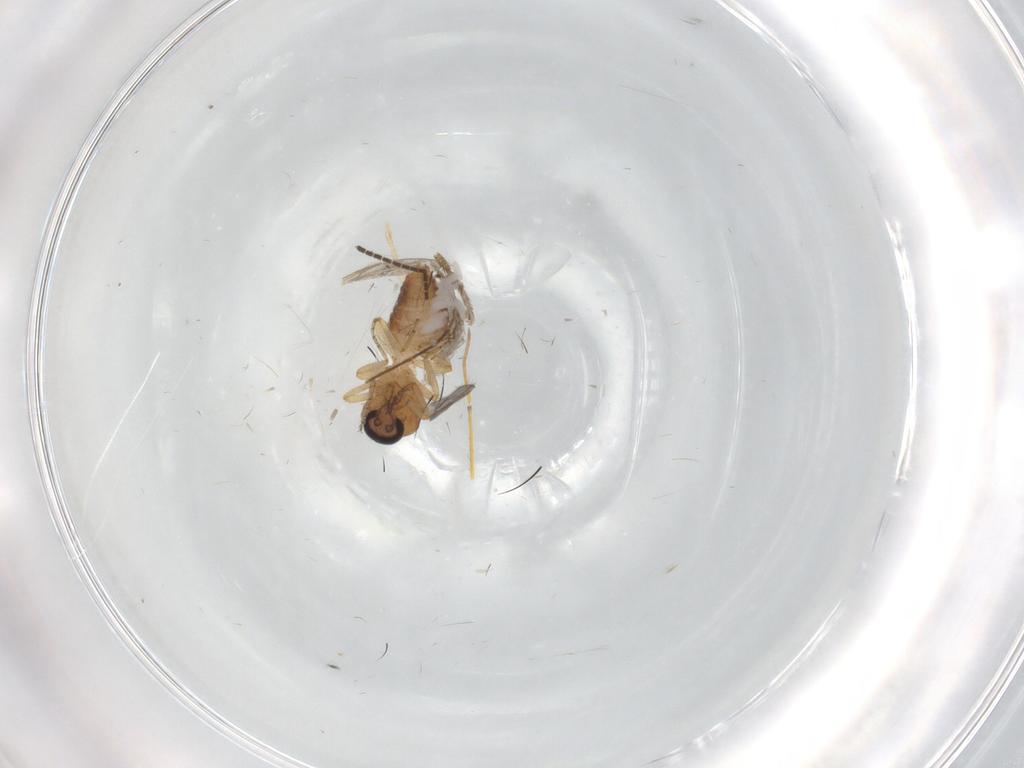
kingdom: Animalia
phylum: Arthropoda
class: Insecta
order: Diptera
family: Ceratopogonidae
